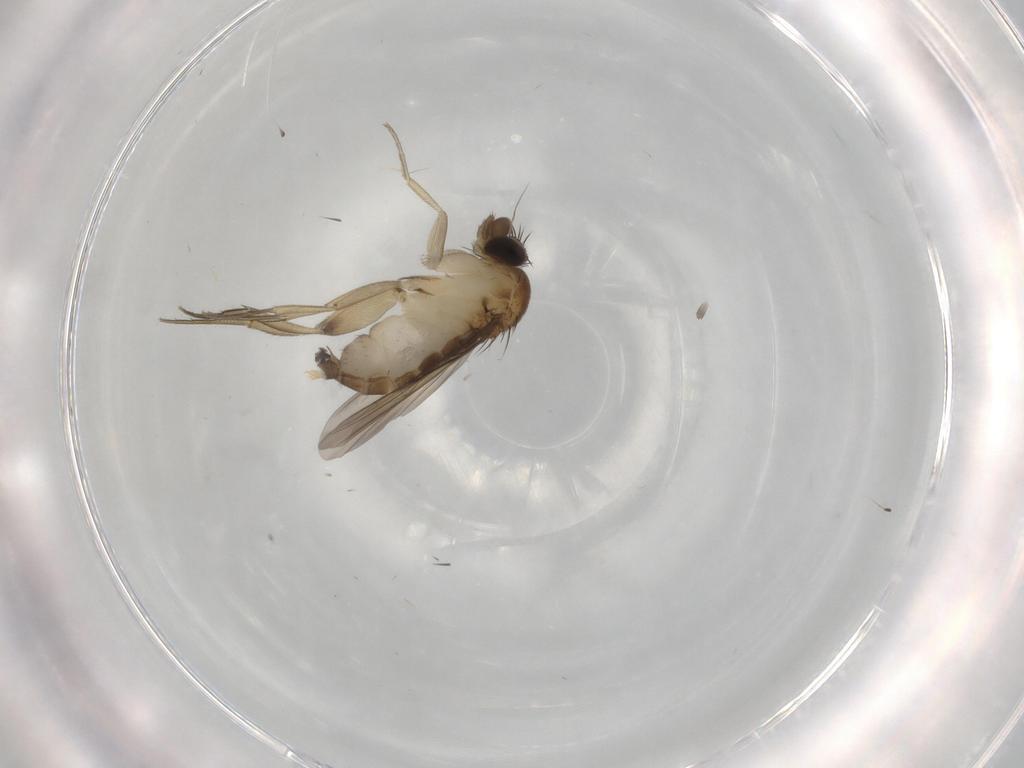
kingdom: Animalia
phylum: Arthropoda
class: Insecta
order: Diptera
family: Phoridae
